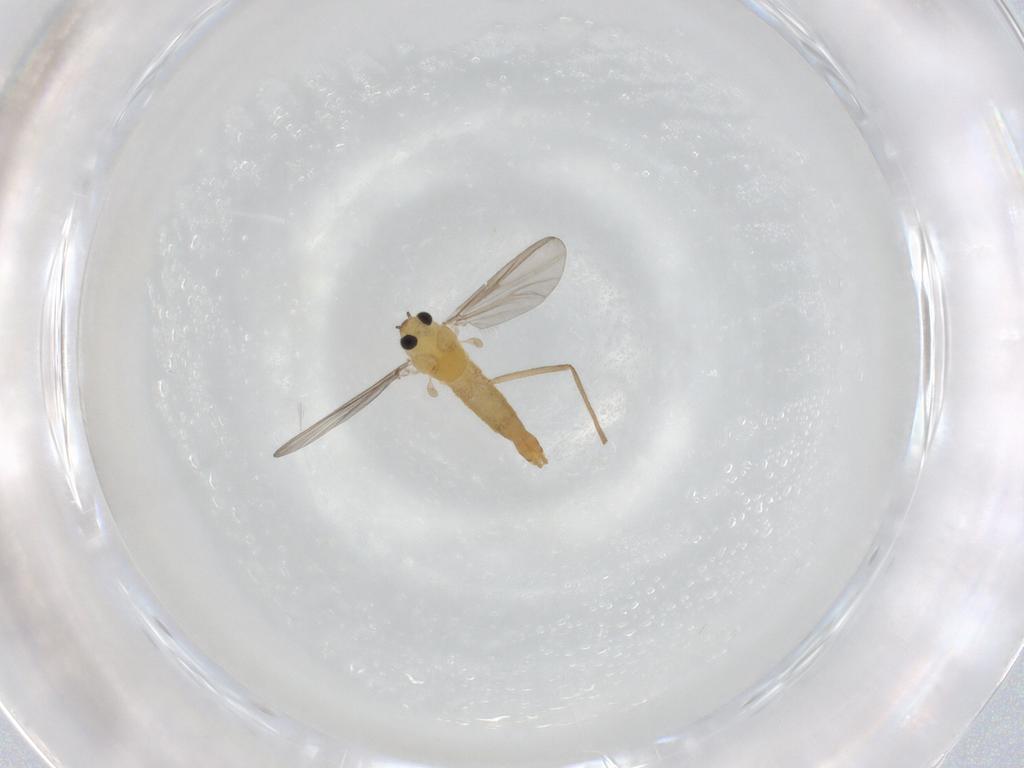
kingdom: Animalia
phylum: Arthropoda
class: Insecta
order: Diptera
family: Chironomidae
